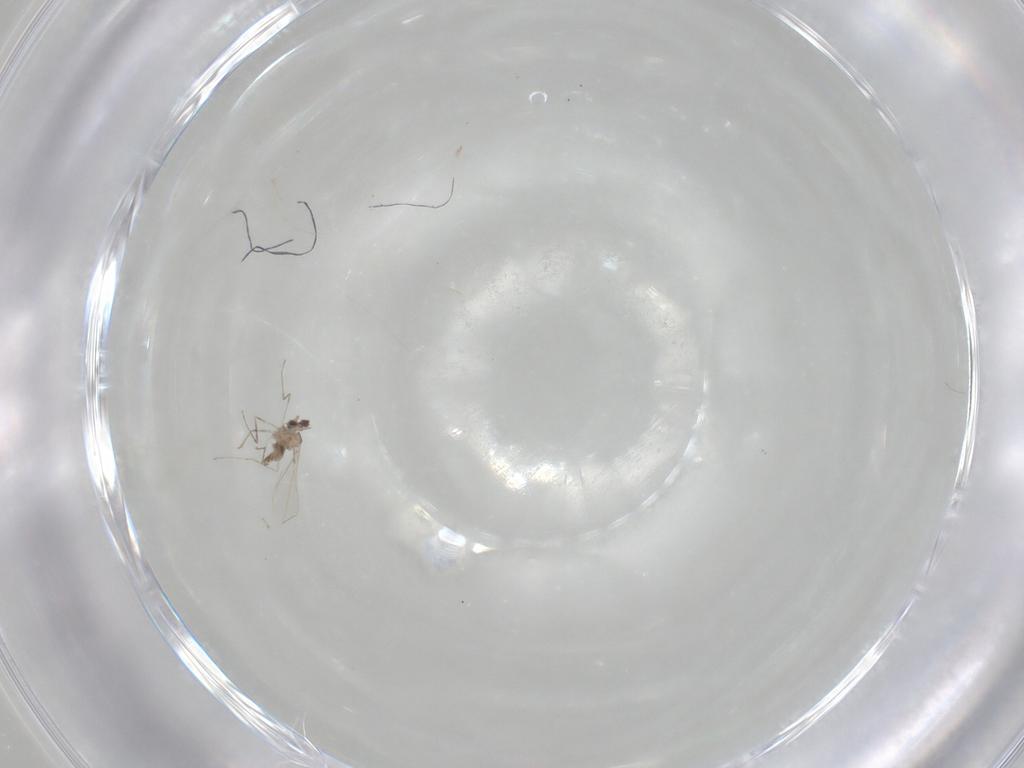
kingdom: Animalia
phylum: Arthropoda
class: Insecta
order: Diptera
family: Cecidomyiidae
